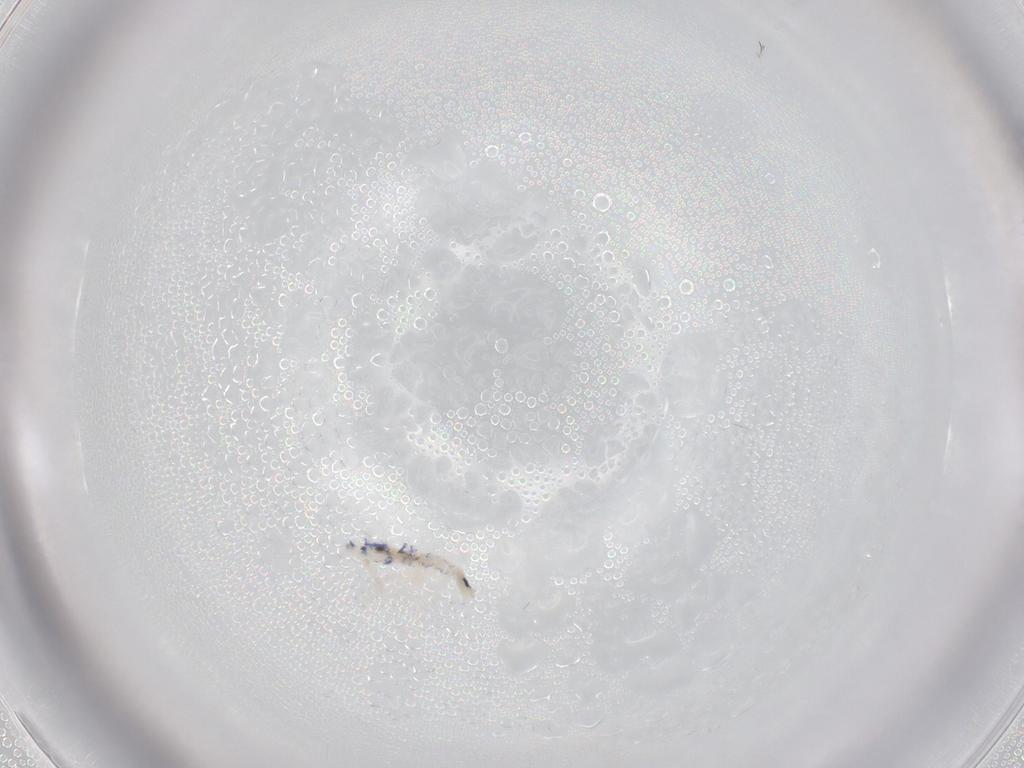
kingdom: Animalia
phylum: Arthropoda
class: Collembola
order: Entomobryomorpha
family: Entomobryidae
